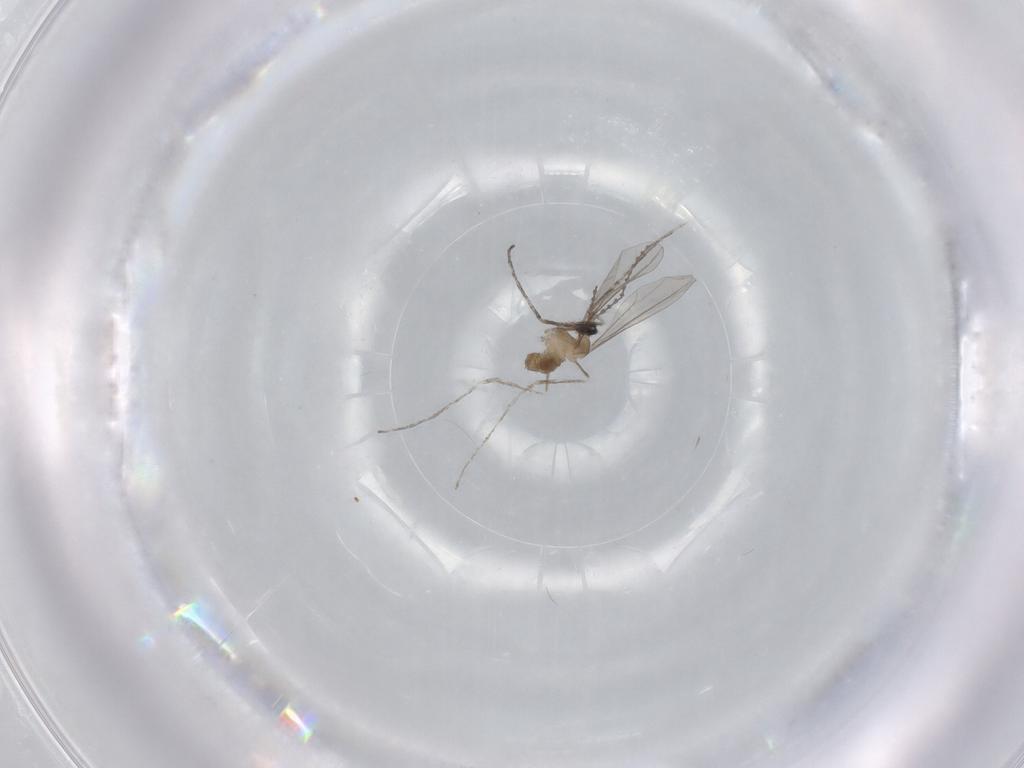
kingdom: Animalia
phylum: Arthropoda
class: Insecta
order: Diptera
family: Cecidomyiidae
